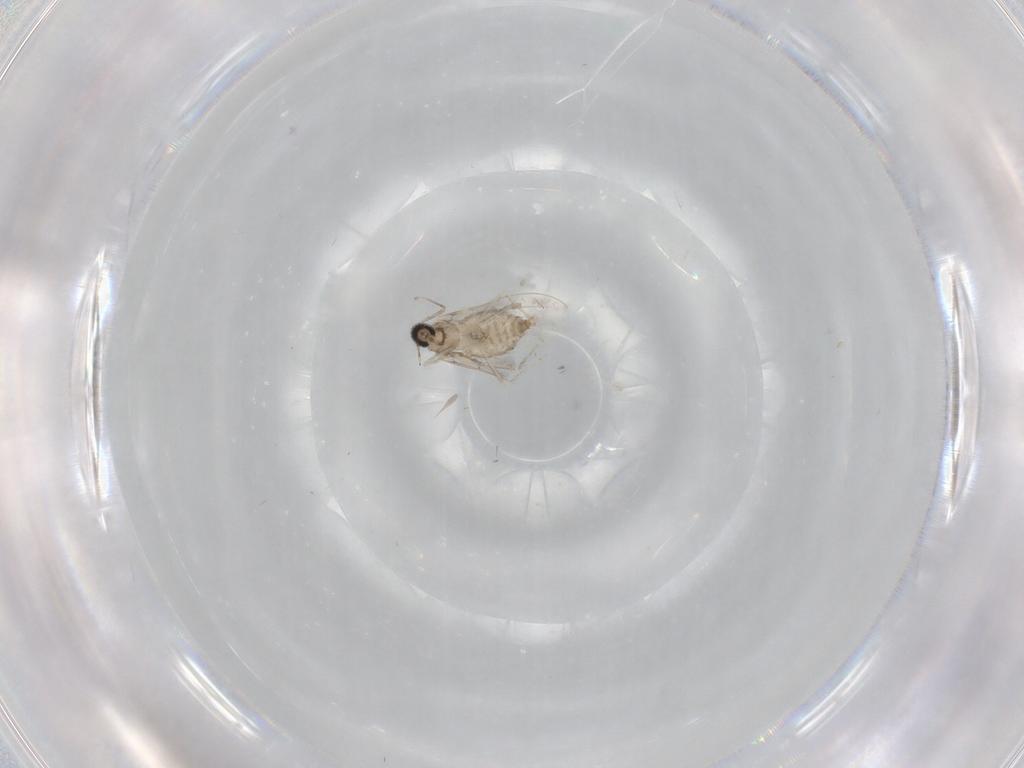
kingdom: Animalia
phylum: Arthropoda
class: Insecta
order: Diptera
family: Cecidomyiidae
